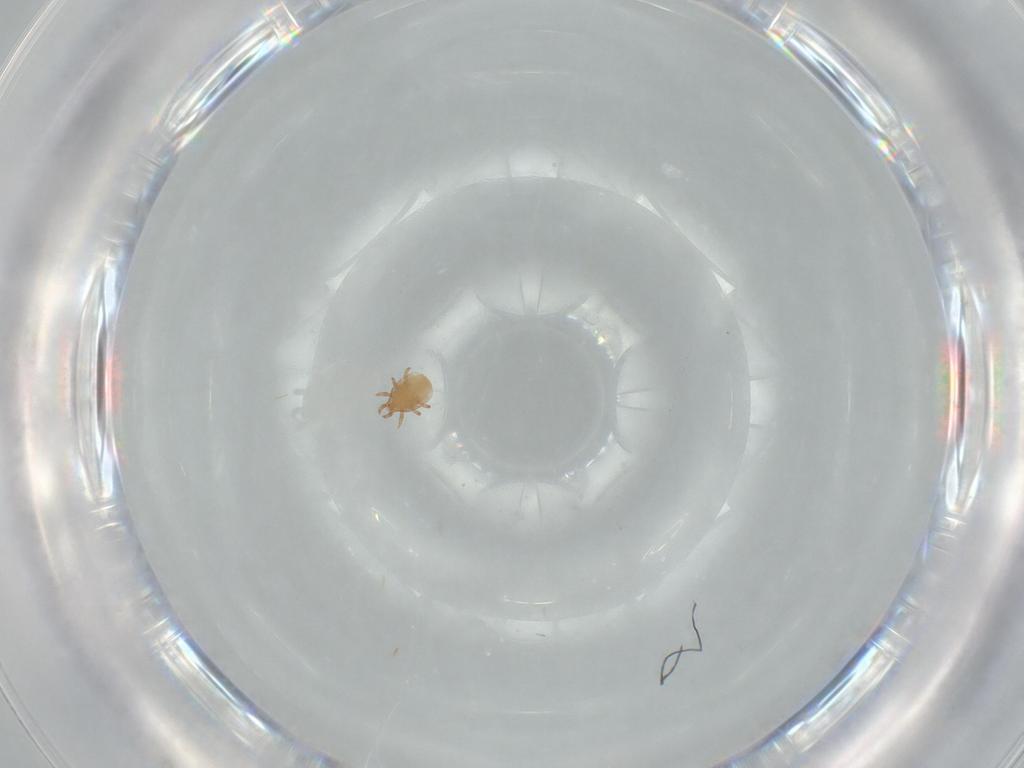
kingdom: Animalia
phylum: Arthropoda
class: Arachnida
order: Mesostigmata
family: Dinychidae
